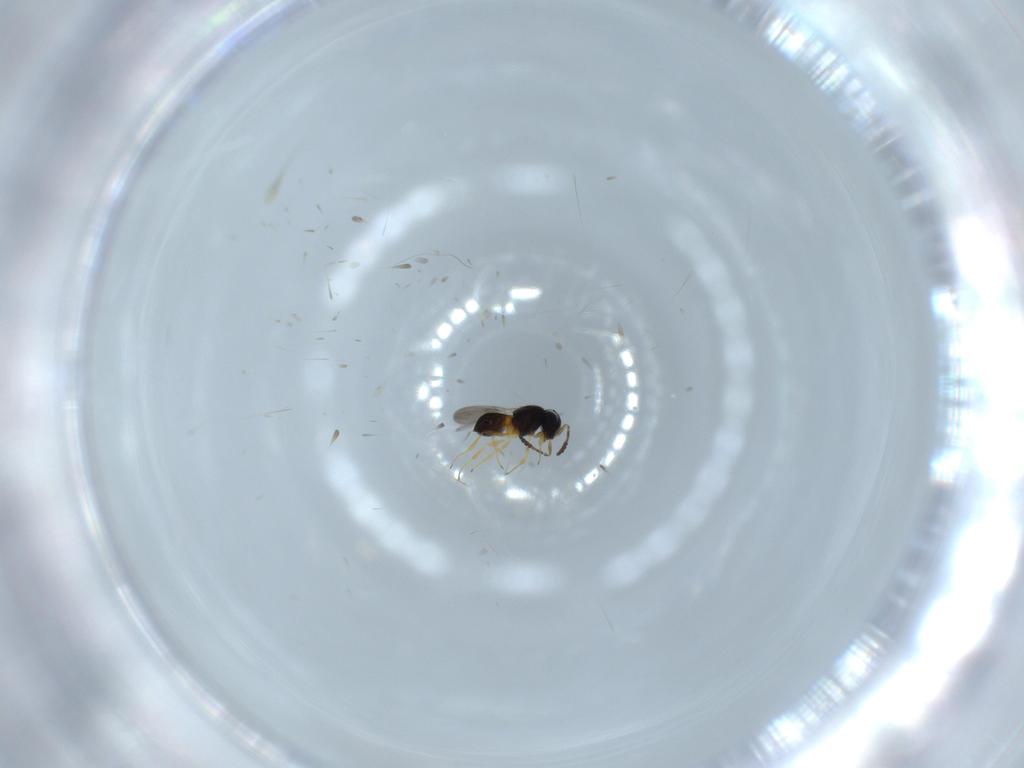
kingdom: Animalia
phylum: Arthropoda
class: Insecta
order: Hymenoptera
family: Scelionidae
